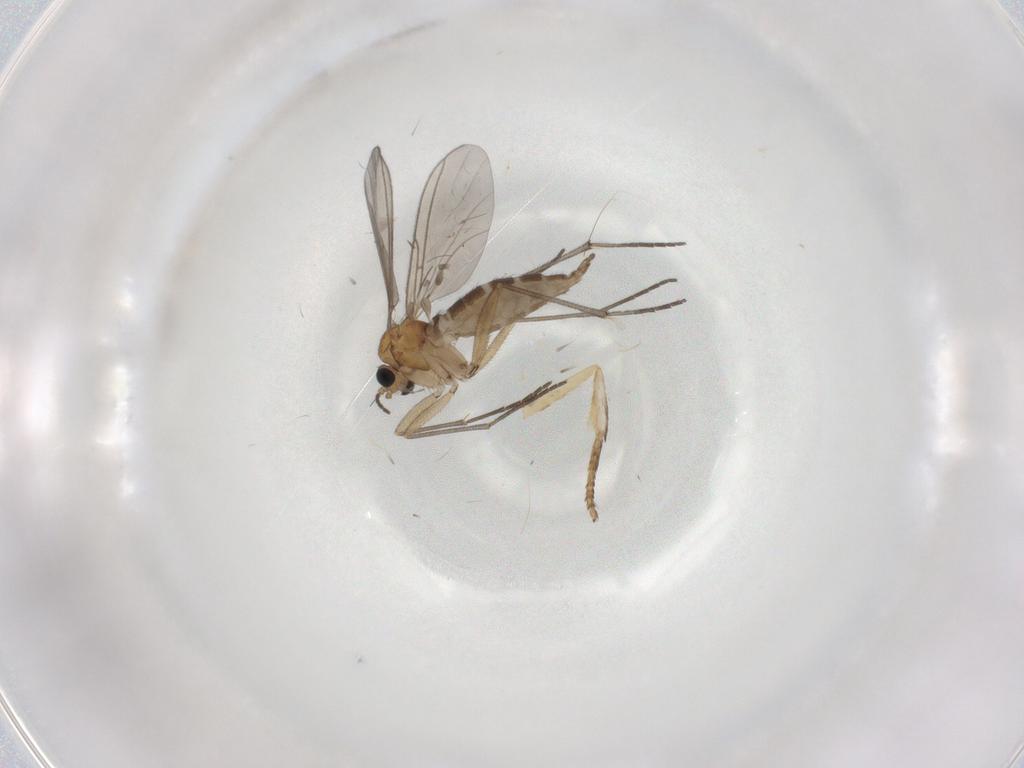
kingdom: Animalia
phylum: Arthropoda
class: Insecta
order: Diptera
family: Sciaridae
